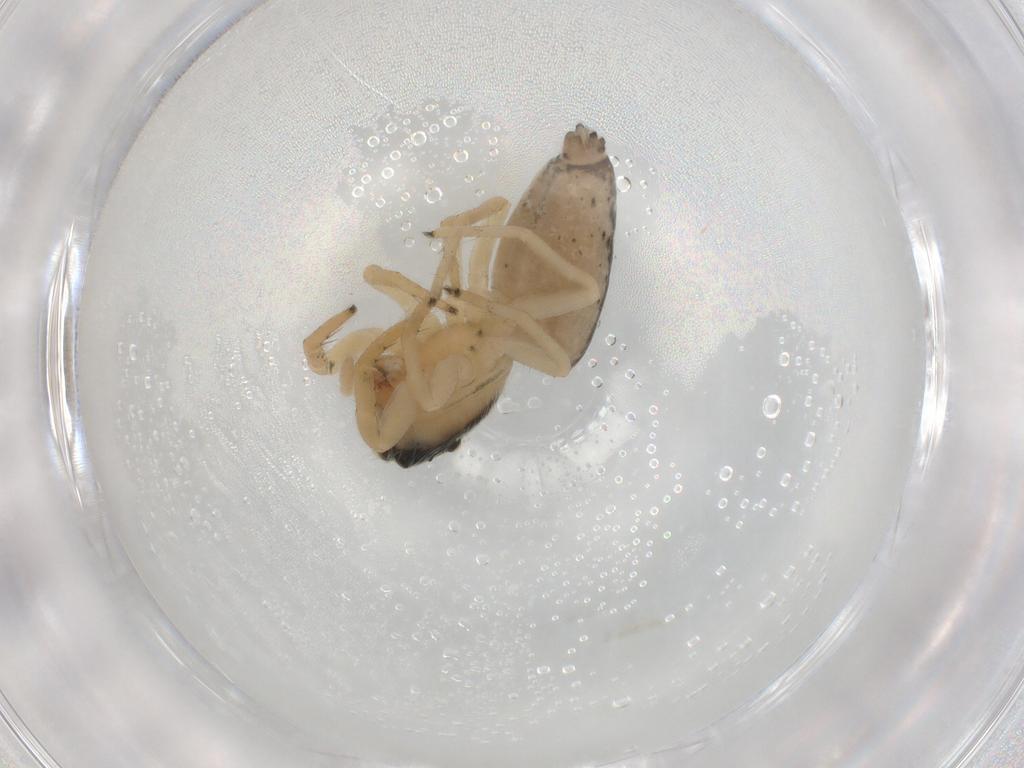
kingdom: Animalia
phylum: Arthropoda
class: Arachnida
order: Araneae
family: Salticidae
